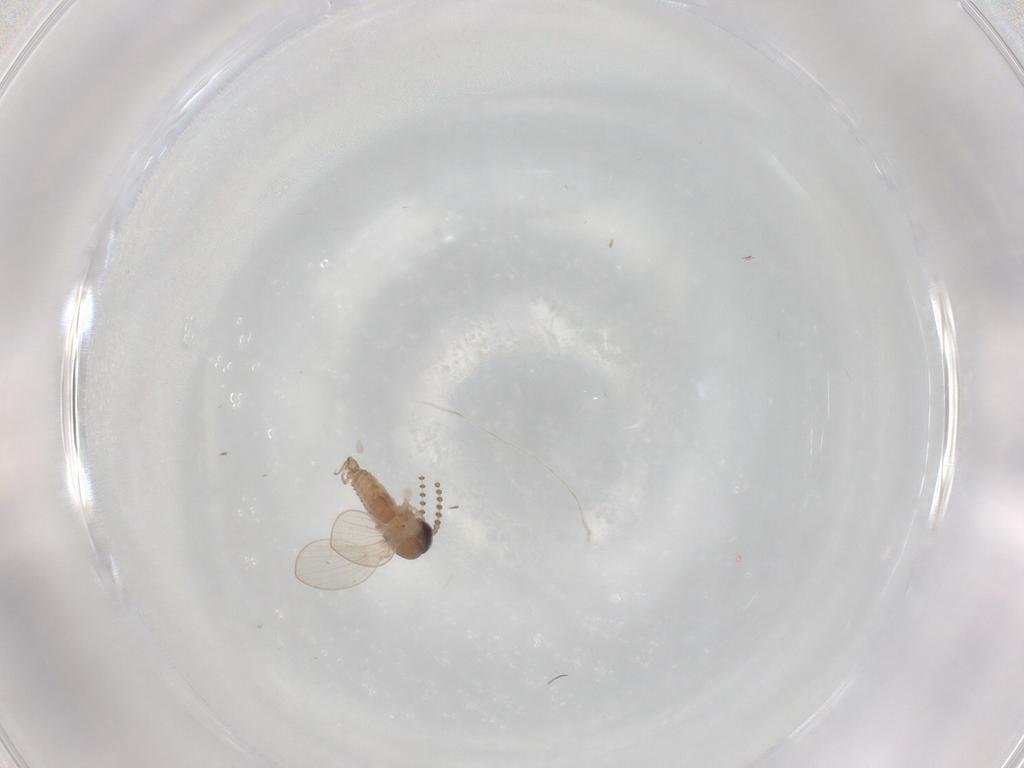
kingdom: Animalia
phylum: Arthropoda
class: Insecta
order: Diptera
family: Psychodidae
